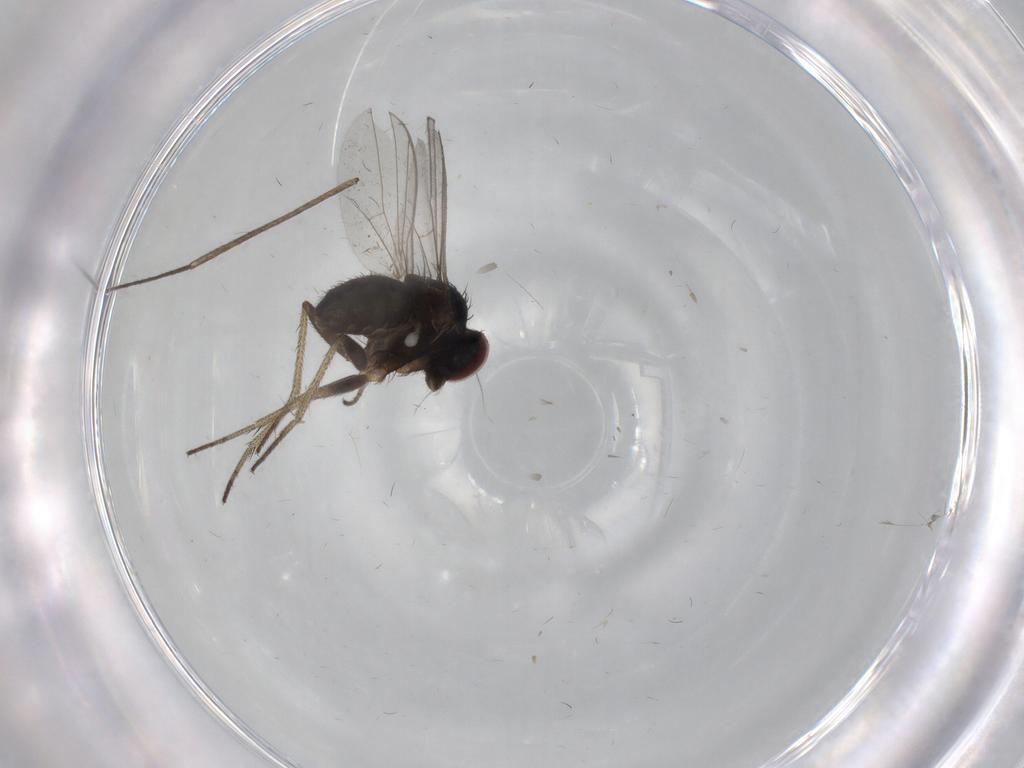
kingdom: Animalia
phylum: Arthropoda
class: Insecta
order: Diptera
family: Limoniidae
